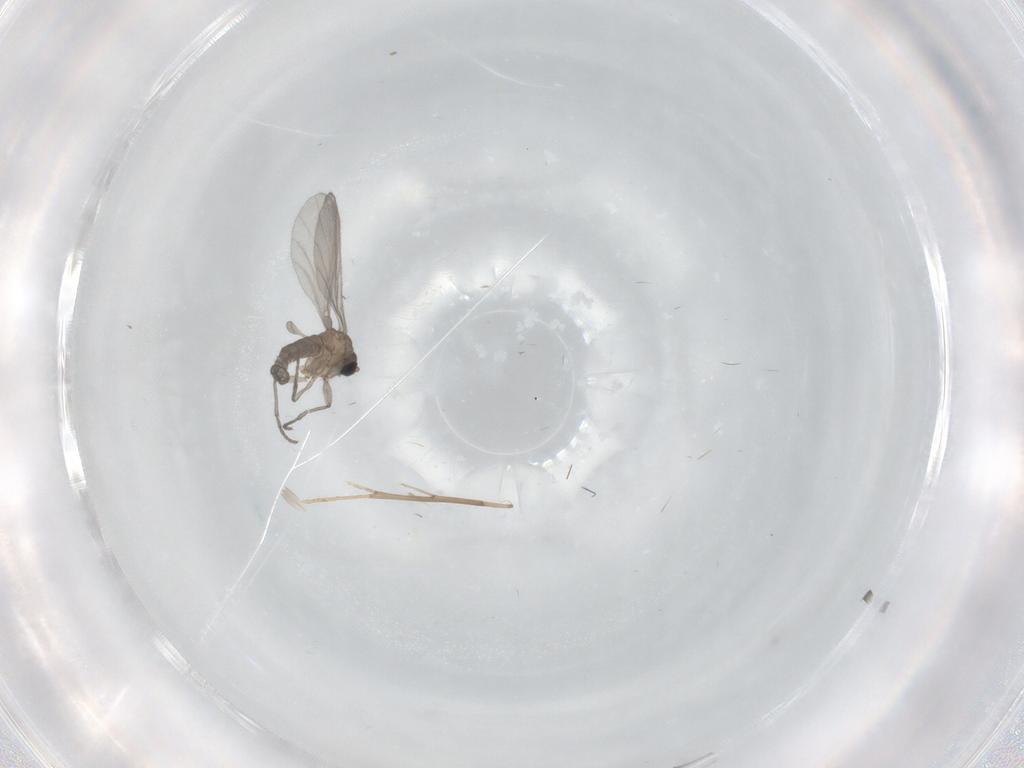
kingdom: Animalia
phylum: Arthropoda
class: Insecta
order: Diptera
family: Sciaridae
